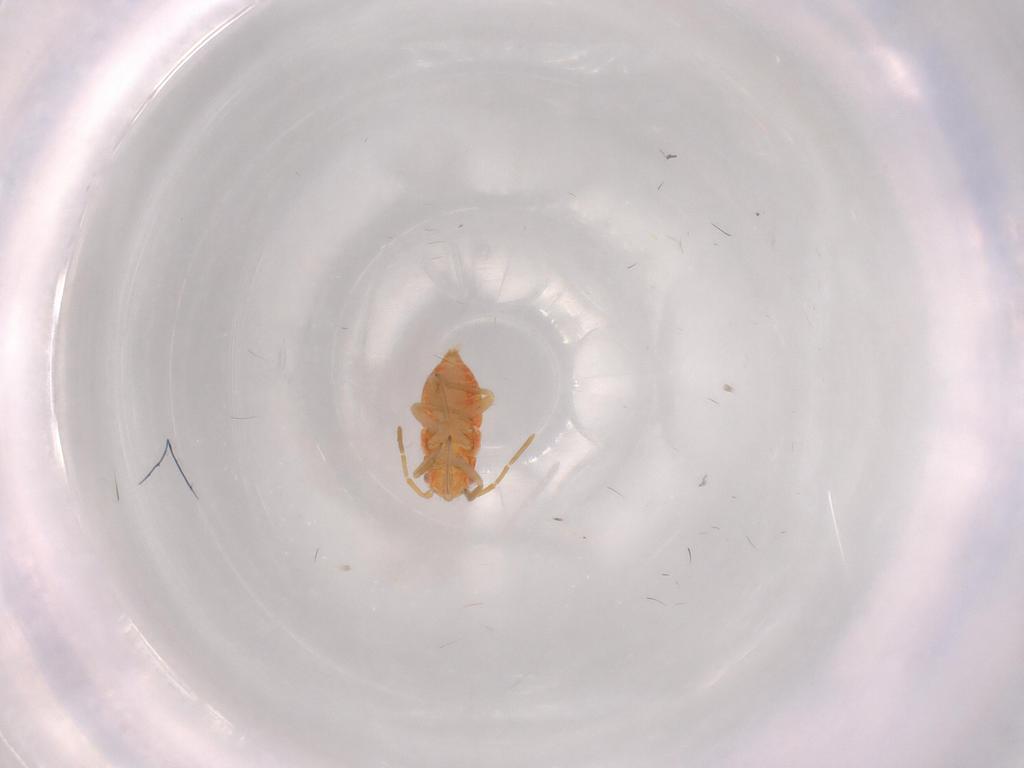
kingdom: Animalia
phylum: Arthropoda
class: Insecta
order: Hemiptera
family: Miridae
